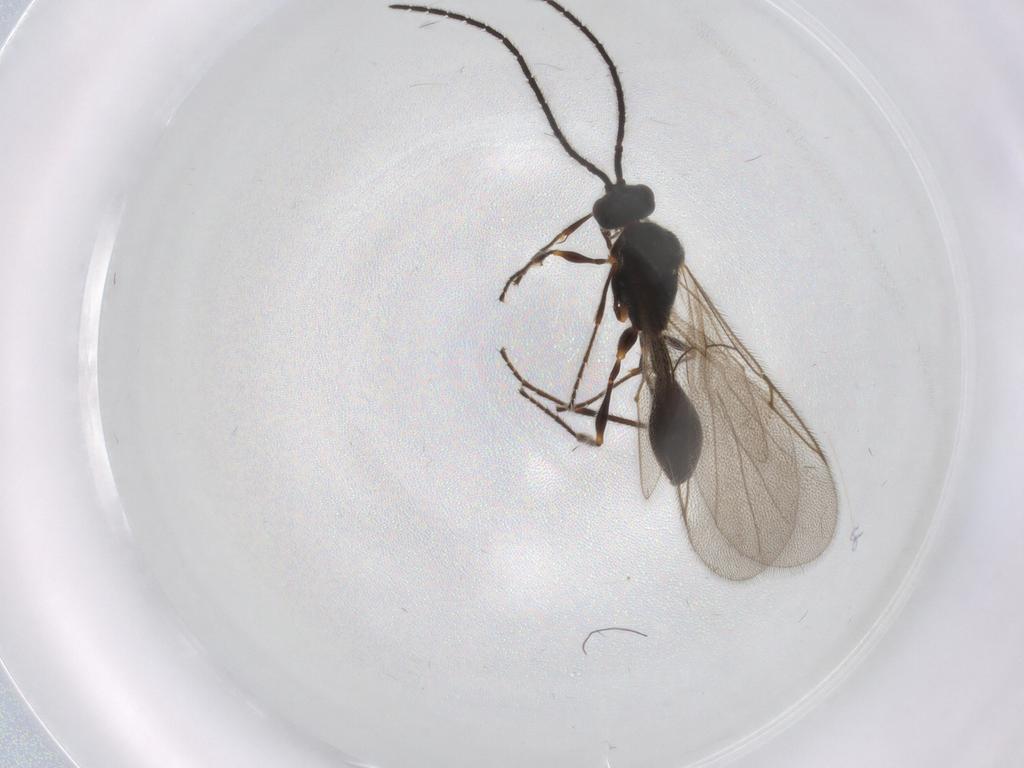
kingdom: Animalia
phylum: Arthropoda
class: Insecta
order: Hymenoptera
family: Diapriidae
